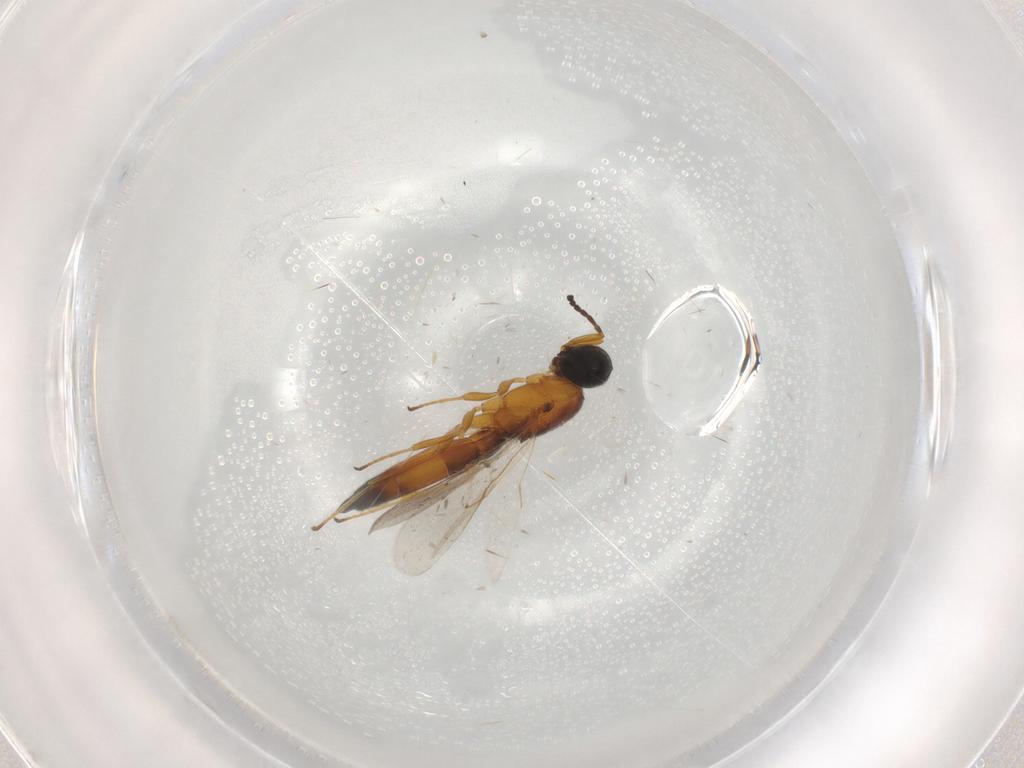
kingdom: Animalia
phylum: Arthropoda
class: Insecta
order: Hymenoptera
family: Braconidae
